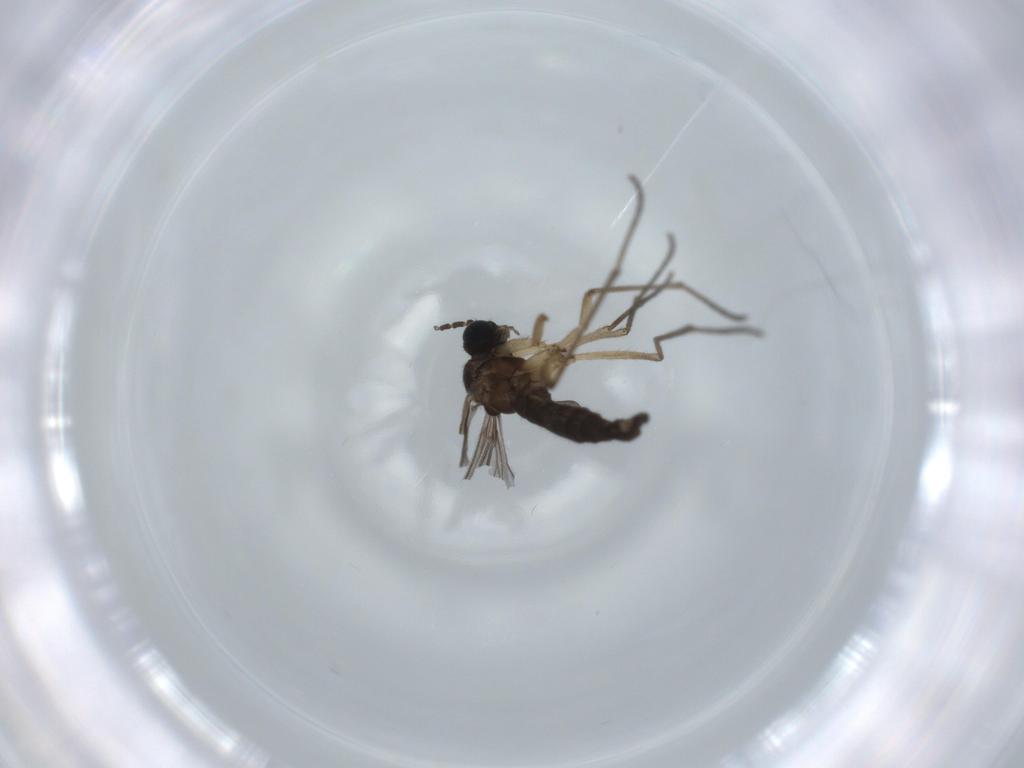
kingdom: Animalia
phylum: Arthropoda
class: Insecta
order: Diptera
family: Sciaridae
